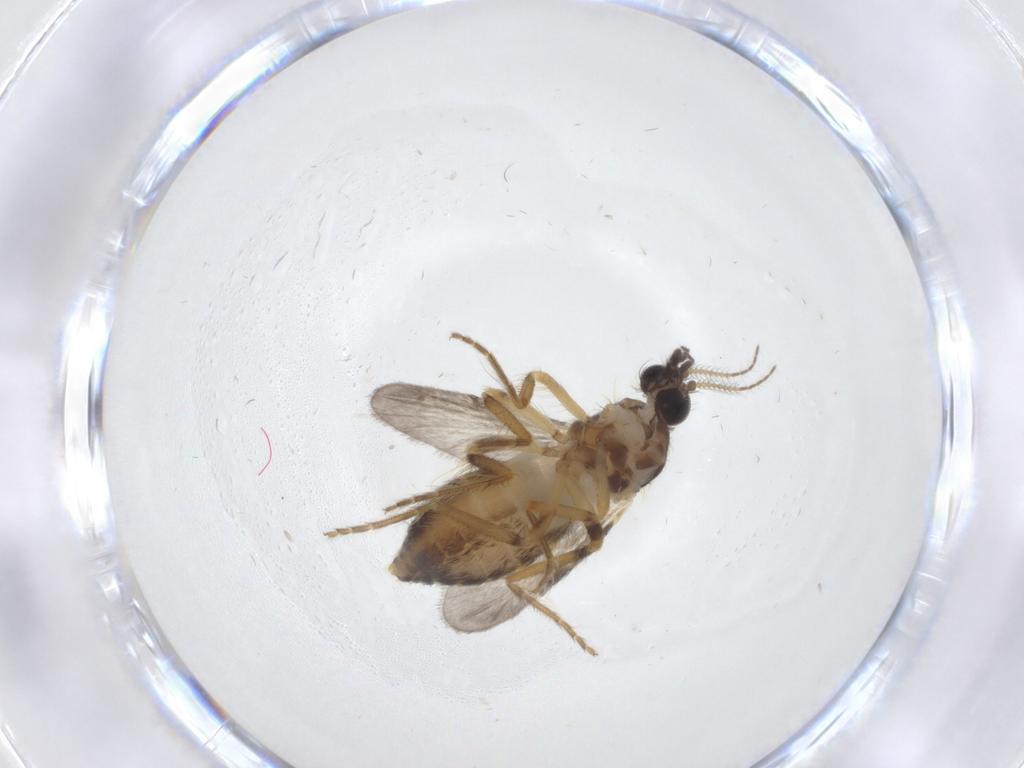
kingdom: Animalia
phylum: Arthropoda
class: Insecta
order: Diptera
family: Ceratopogonidae
